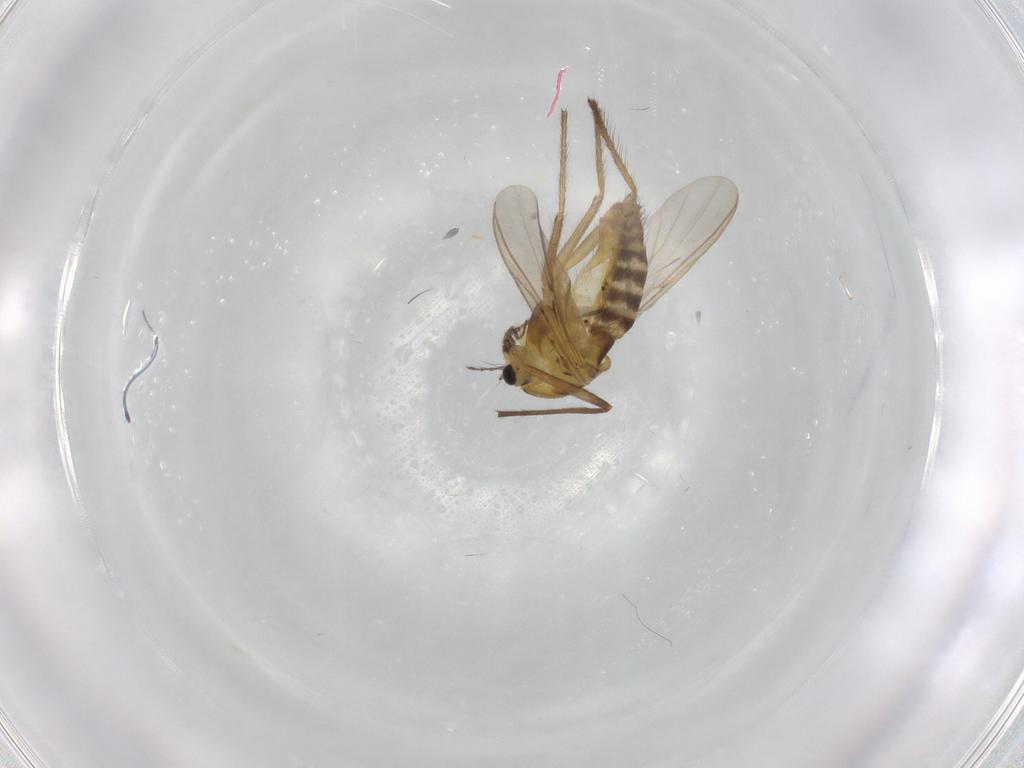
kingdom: Animalia
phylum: Arthropoda
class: Insecta
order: Diptera
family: Chironomidae
